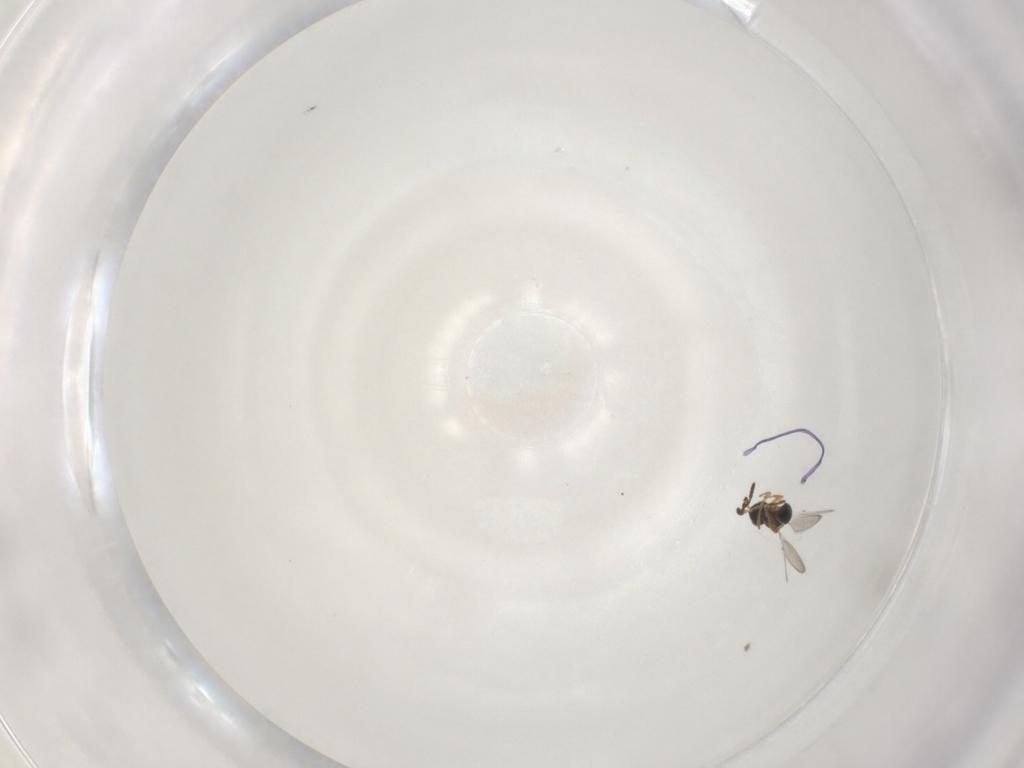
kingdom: Animalia
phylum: Arthropoda
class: Insecta
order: Hymenoptera
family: Platygastridae
